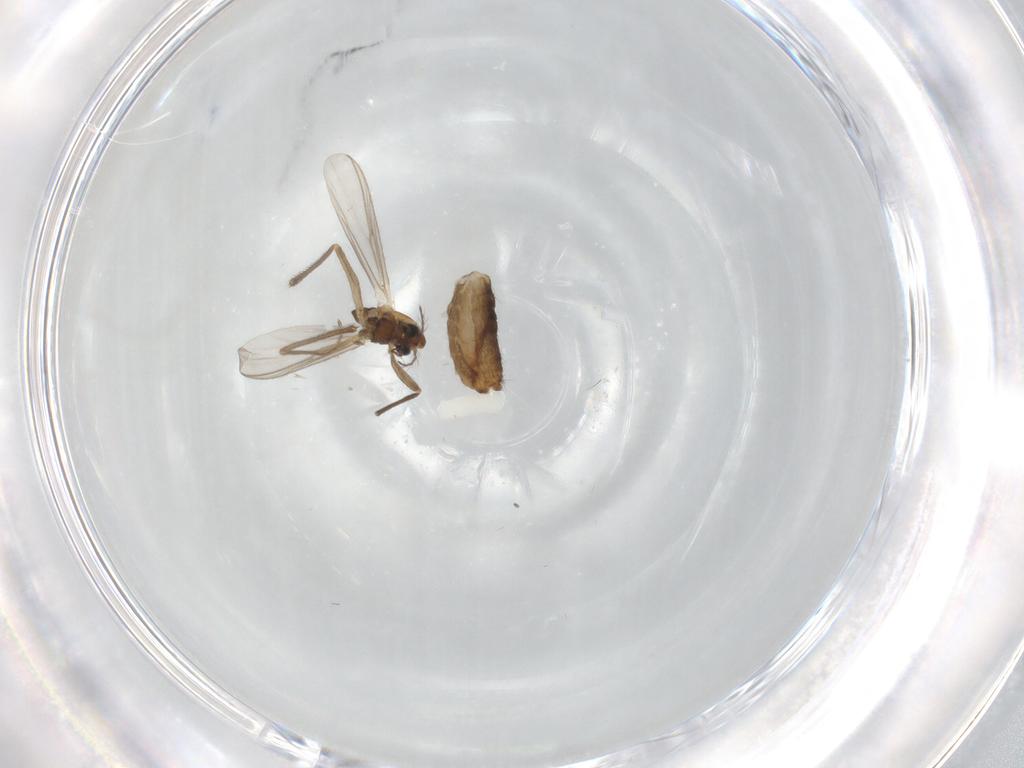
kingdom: Animalia
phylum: Arthropoda
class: Insecta
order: Diptera
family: Chironomidae
